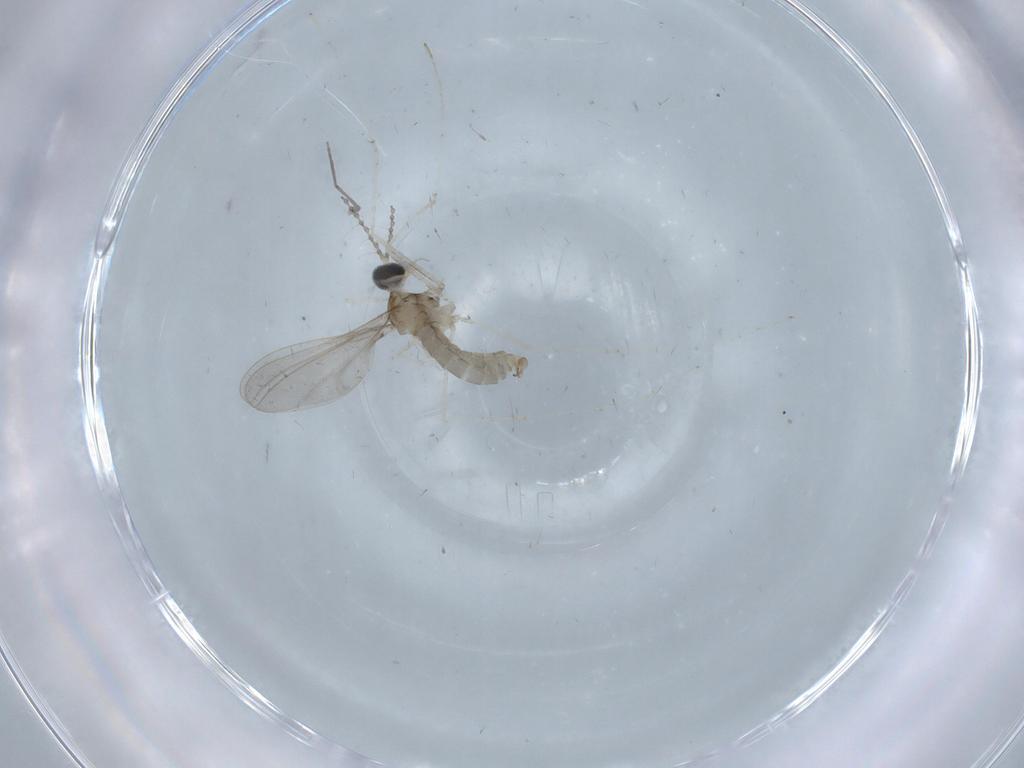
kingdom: Animalia
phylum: Arthropoda
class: Insecta
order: Diptera
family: Cecidomyiidae
